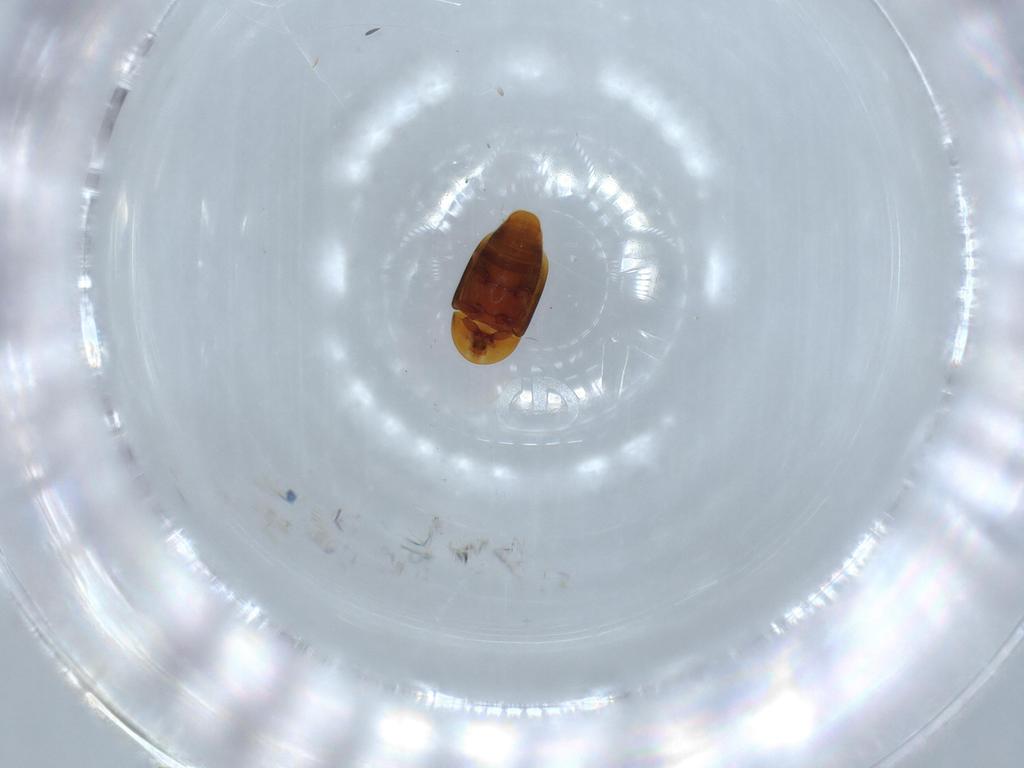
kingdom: Animalia
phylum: Arthropoda
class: Insecta
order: Coleoptera
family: Corylophidae
